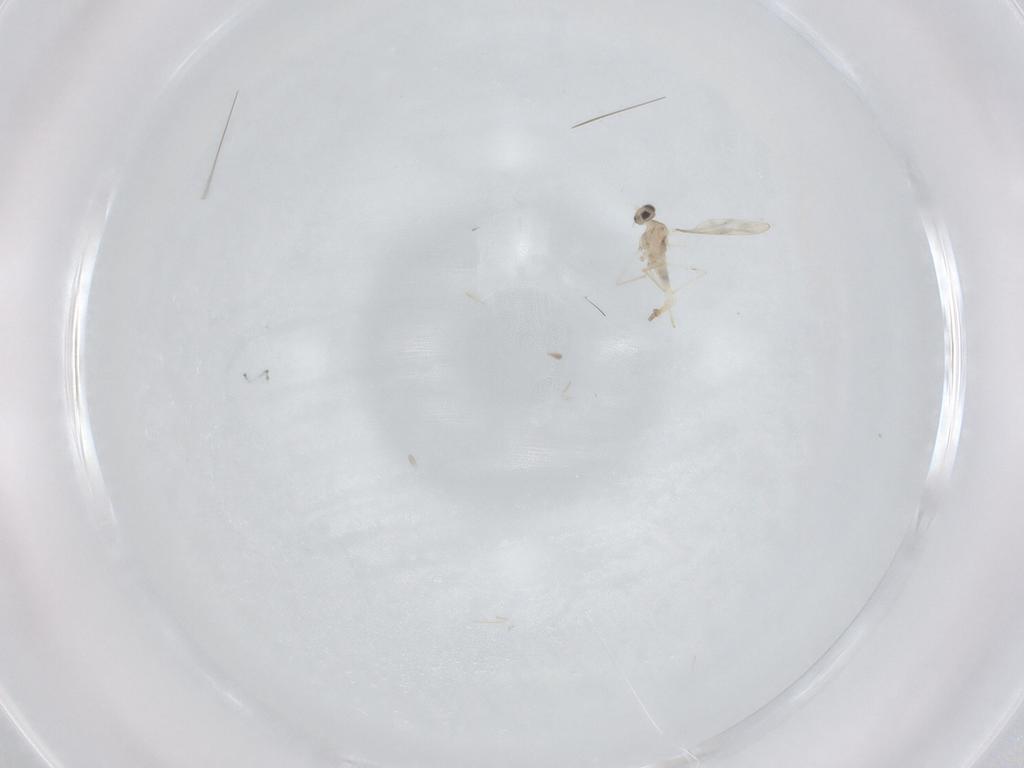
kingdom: Animalia
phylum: Arthropoda
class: Insecta
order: Diptera
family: Cecidomyiidae
